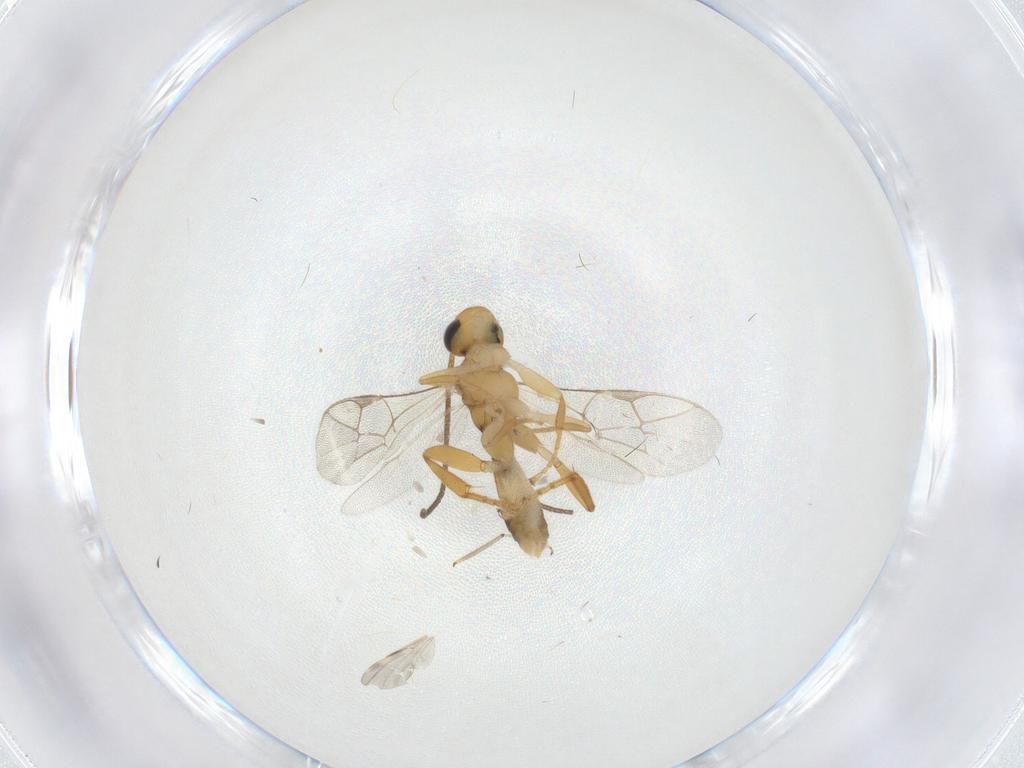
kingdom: Animalia
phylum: Arthropoda
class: Insecta
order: Hymenoptera
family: Ichneumonidae
